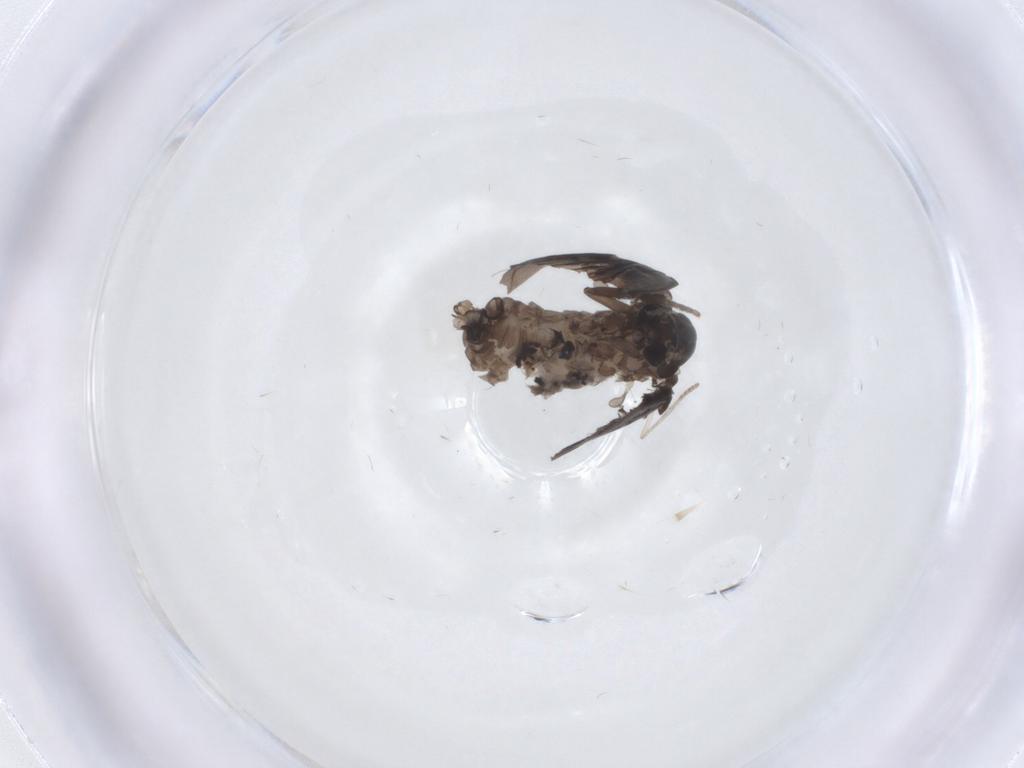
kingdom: Animalia
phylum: Arthropoda
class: Insecta
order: Diptera
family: Psychodidae
